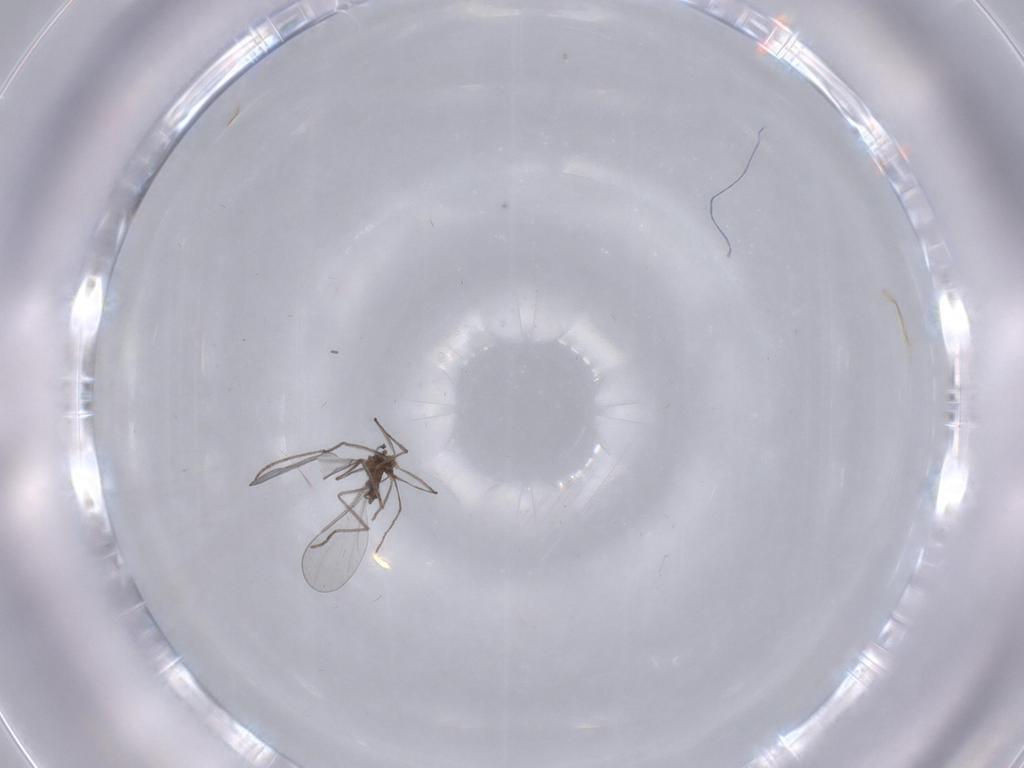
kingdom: Animalia
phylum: Arthropoda
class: Insecta
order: Diptera
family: Cecidomyiidae
